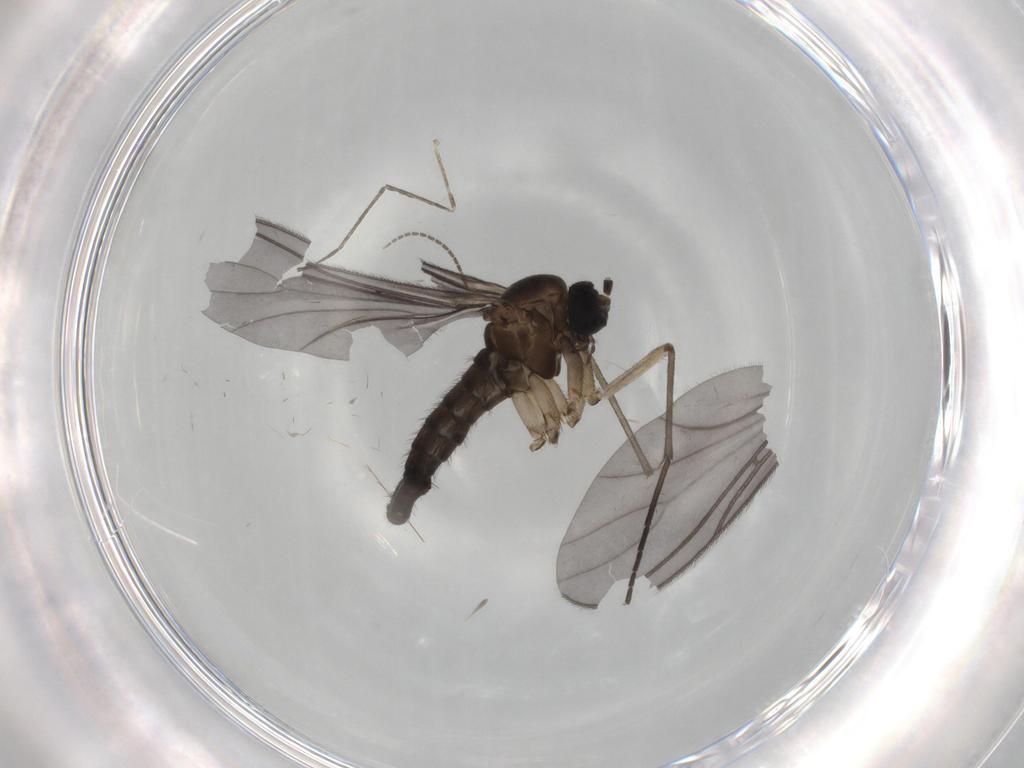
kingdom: Animalia
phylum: Arthropoda
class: Insecta
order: Diptera
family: Sciaridae
